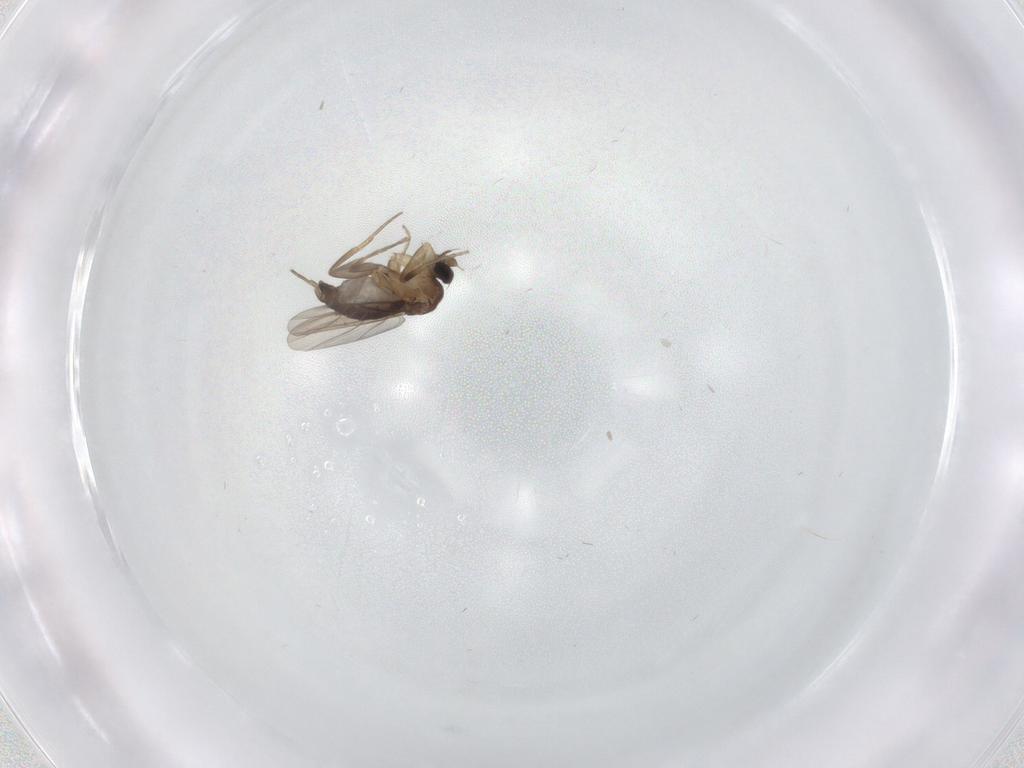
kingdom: Animalia
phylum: Arthropoda
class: Insecta
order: Diptera
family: Phoridae
